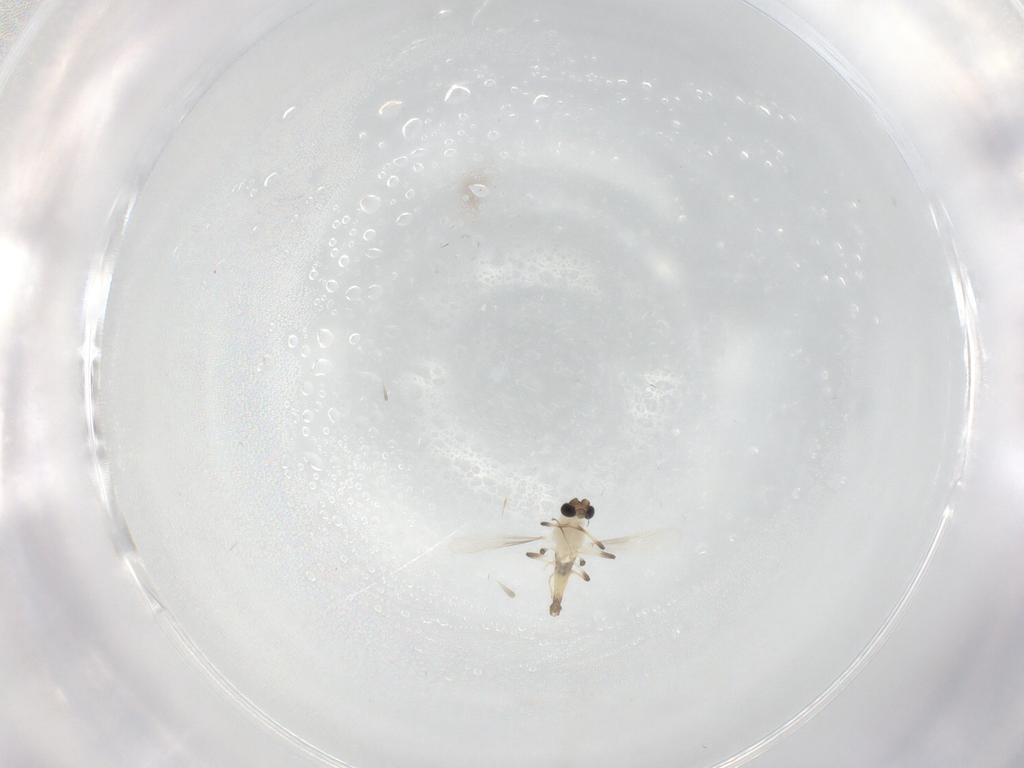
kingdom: Animalia
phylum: Arthropoda
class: Insecta
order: Diptera
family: Chironomidae
